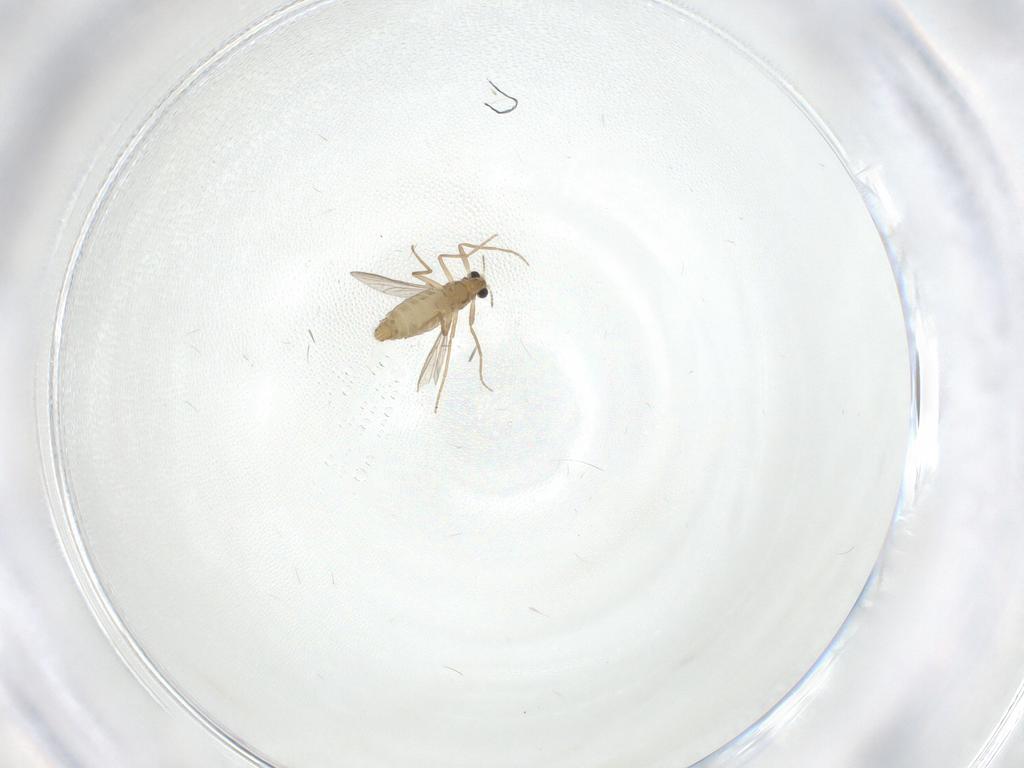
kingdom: Animalia
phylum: Arthropoda
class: Insecta
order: Diptera
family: Chironomidae
